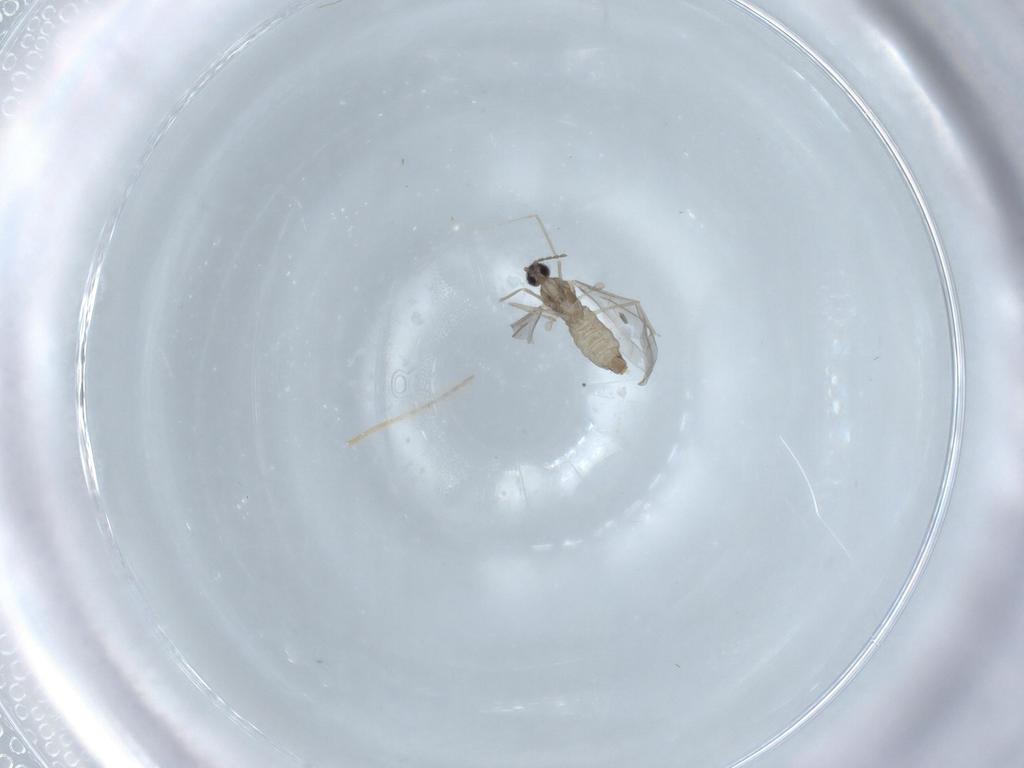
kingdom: Animalia
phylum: Arthropoda
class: Insecta
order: Diptera
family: Cecidomyiidae
